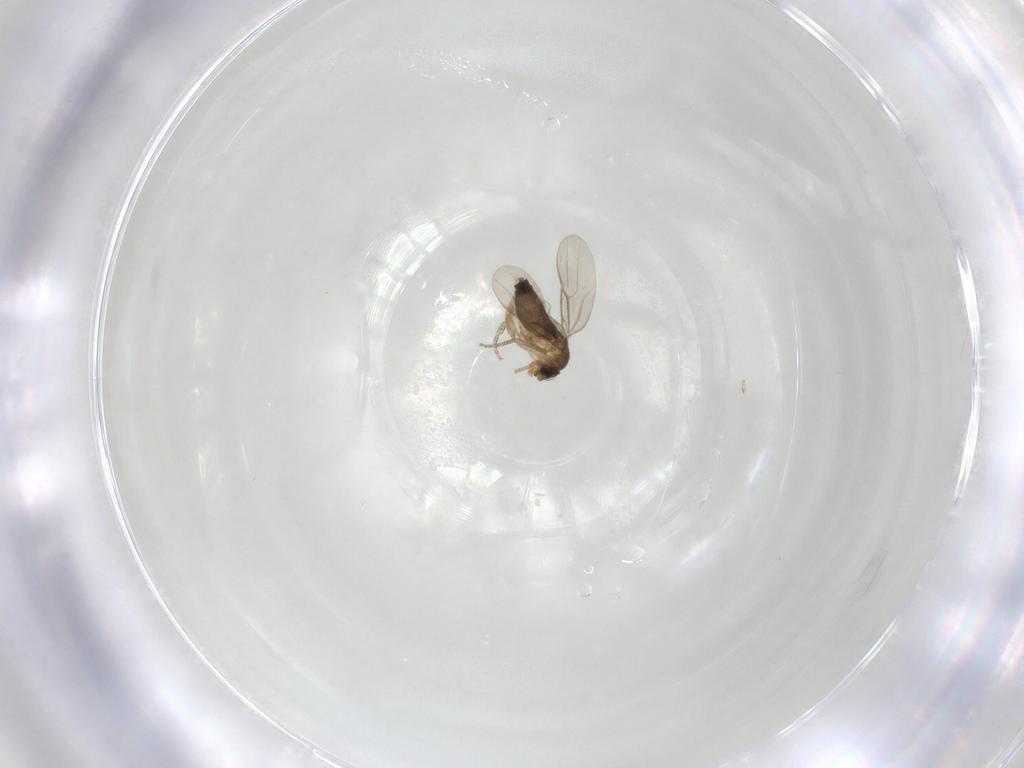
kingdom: Animalia
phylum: Arthropoda
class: Insecta
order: Diptera
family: Phoridae
